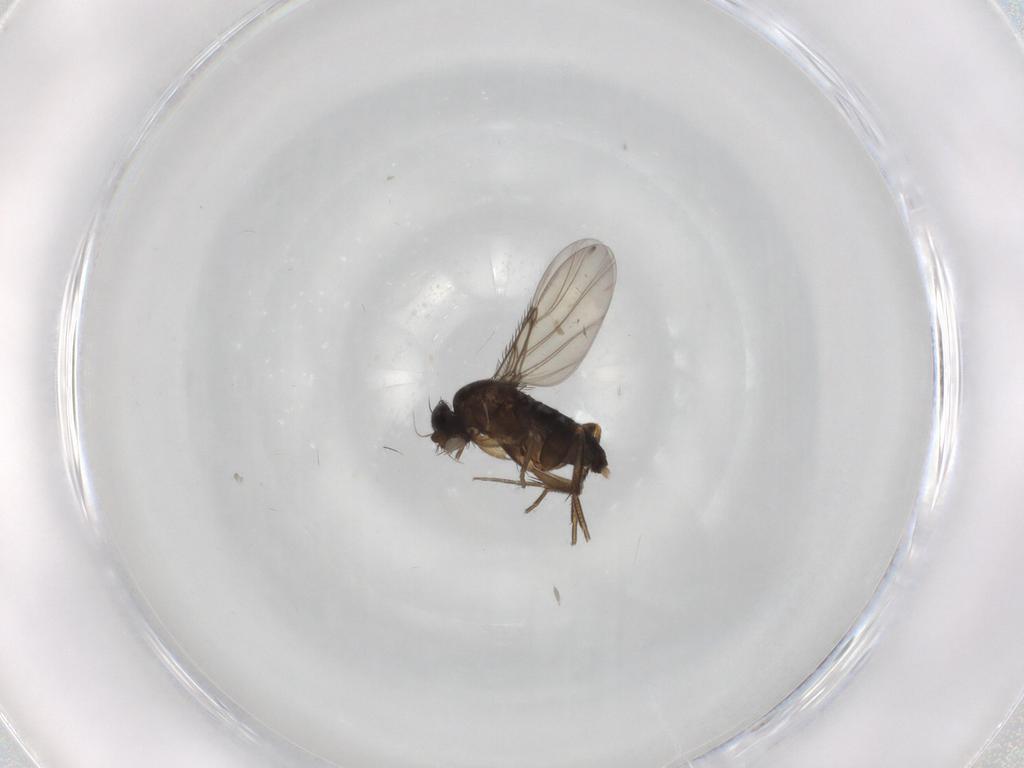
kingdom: Animalia
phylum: Arthropoda
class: Insecta
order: Diptera
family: Phoridae
